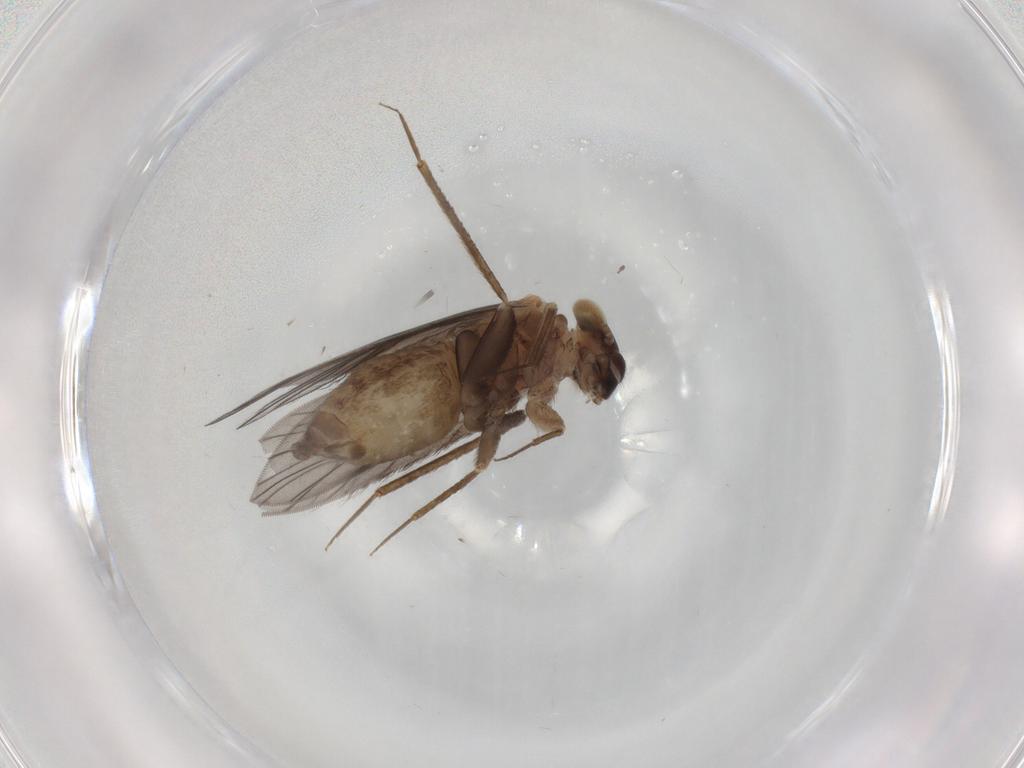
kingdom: Animalia
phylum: Arthropoda
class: Insecta
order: Psocodea
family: Lepidopsocidae
